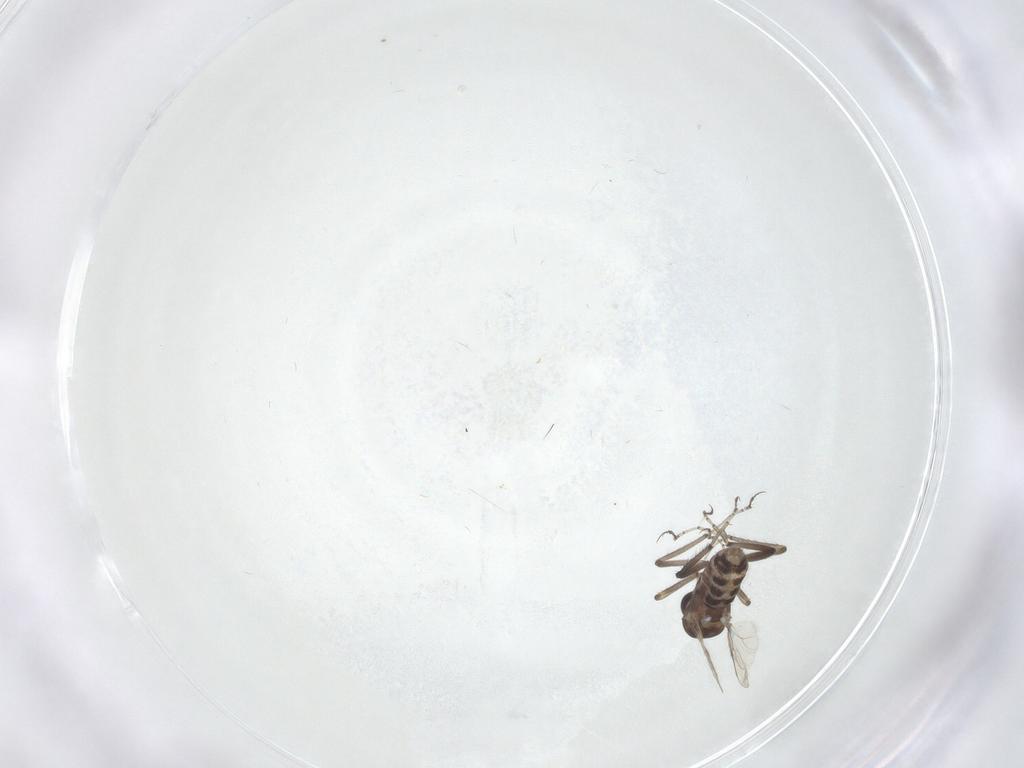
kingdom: Animalia
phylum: Arthropoda
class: Insecta
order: Diptera
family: Ceratopogonidae
